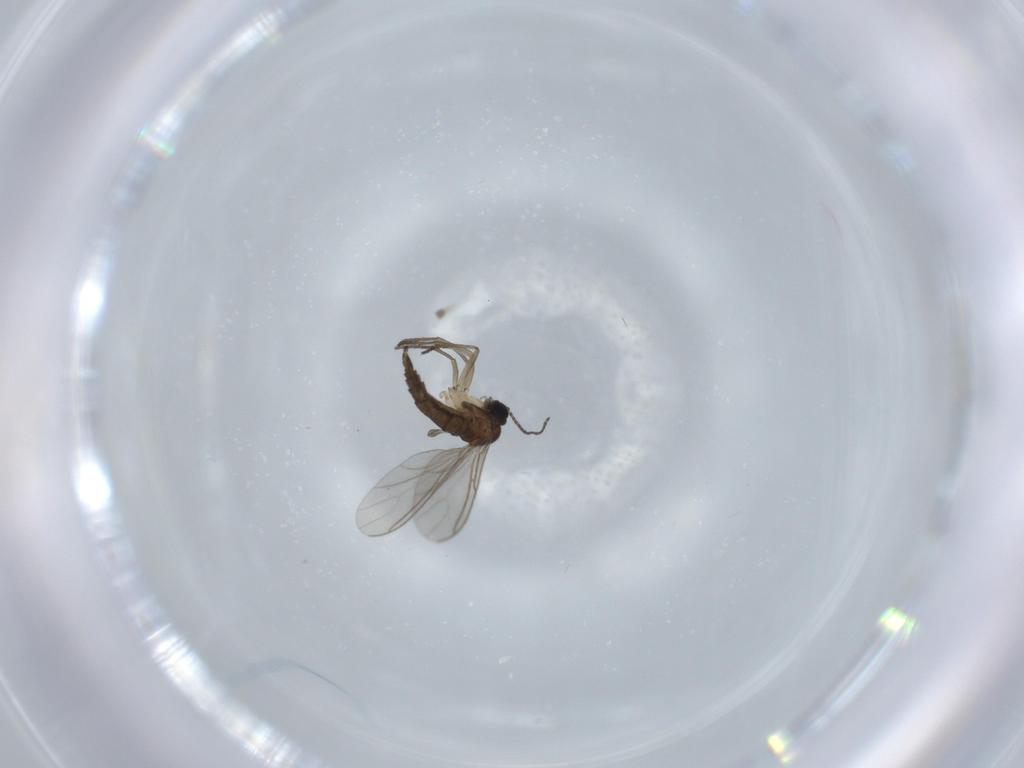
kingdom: Animalia
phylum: Arthropoda
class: Insecta
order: Diptera
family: Sciaridae
